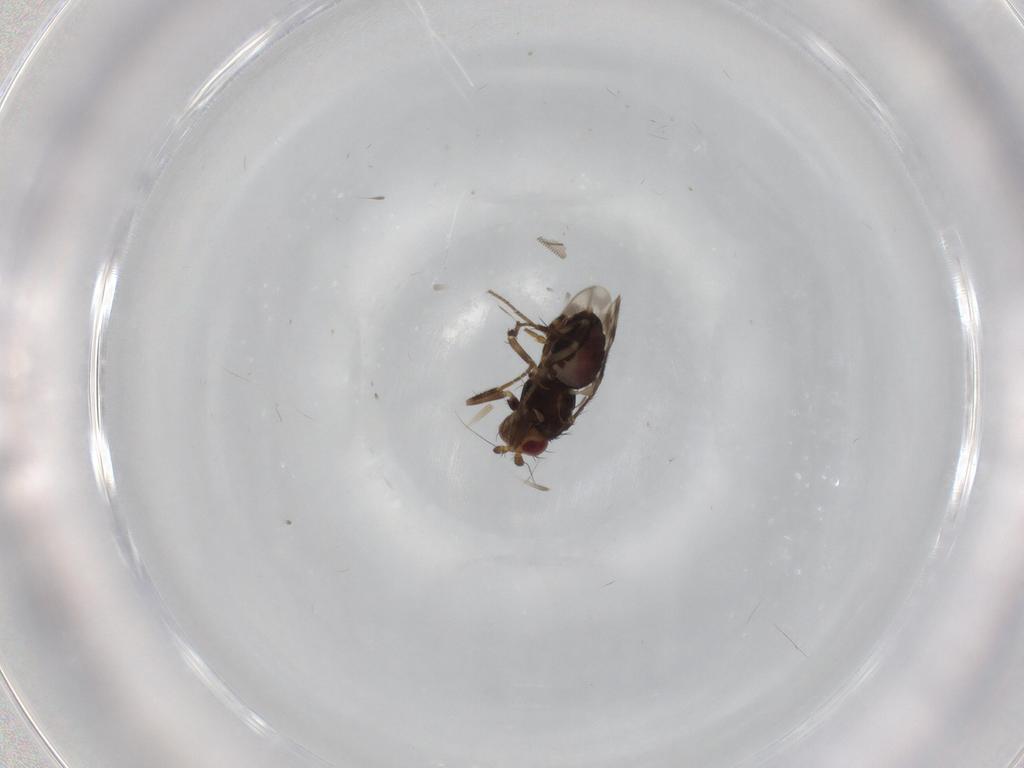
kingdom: Animalia
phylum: Arthropoda
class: Insecta
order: Diptera
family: Sphaeroceridae
